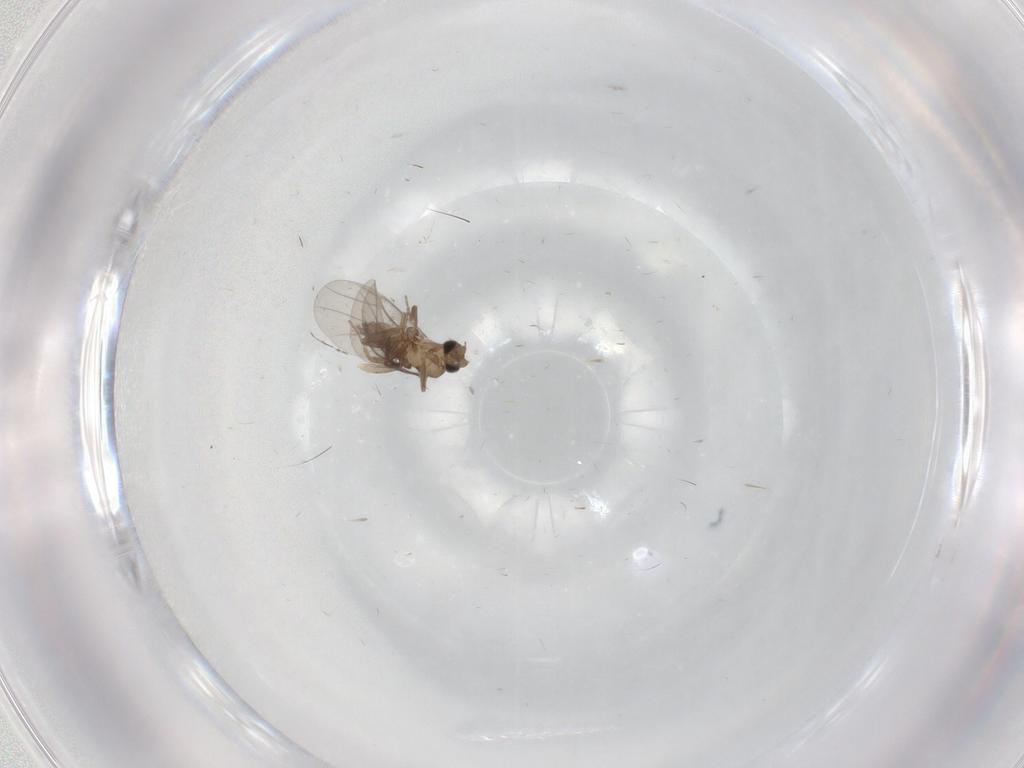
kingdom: Animalia
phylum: Arthropoda
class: Insecta
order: Diptera
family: Sciaridae
